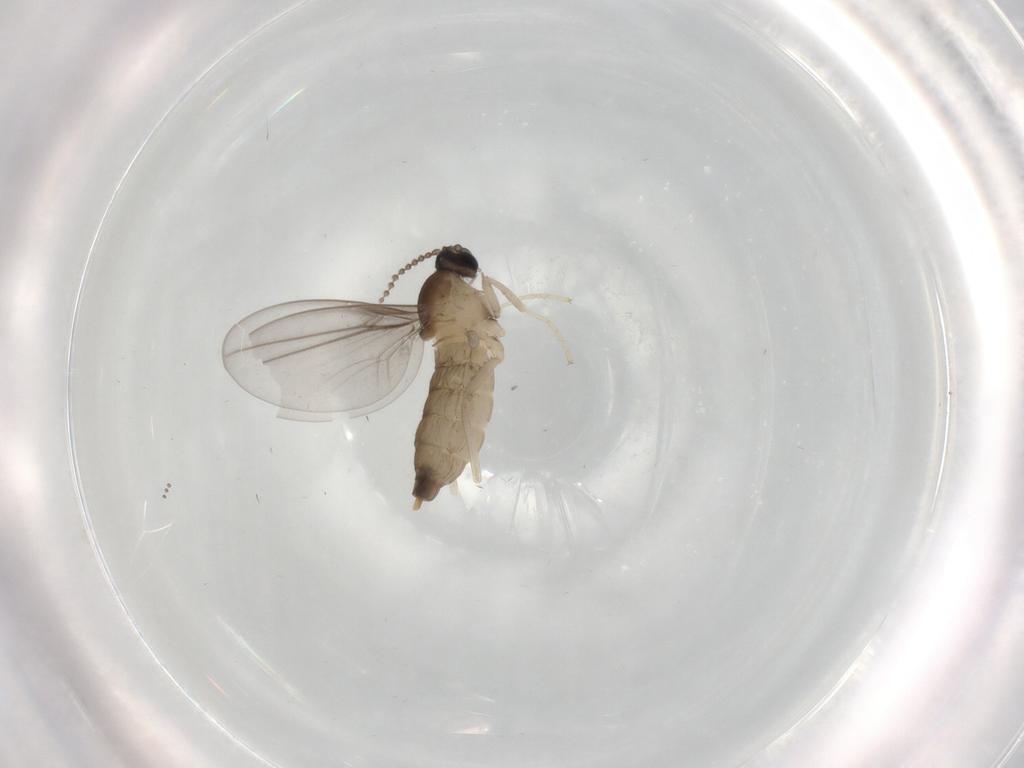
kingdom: Animalia
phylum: Arthropoda
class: Insecta
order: Diptera
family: Cecidomyiidae
